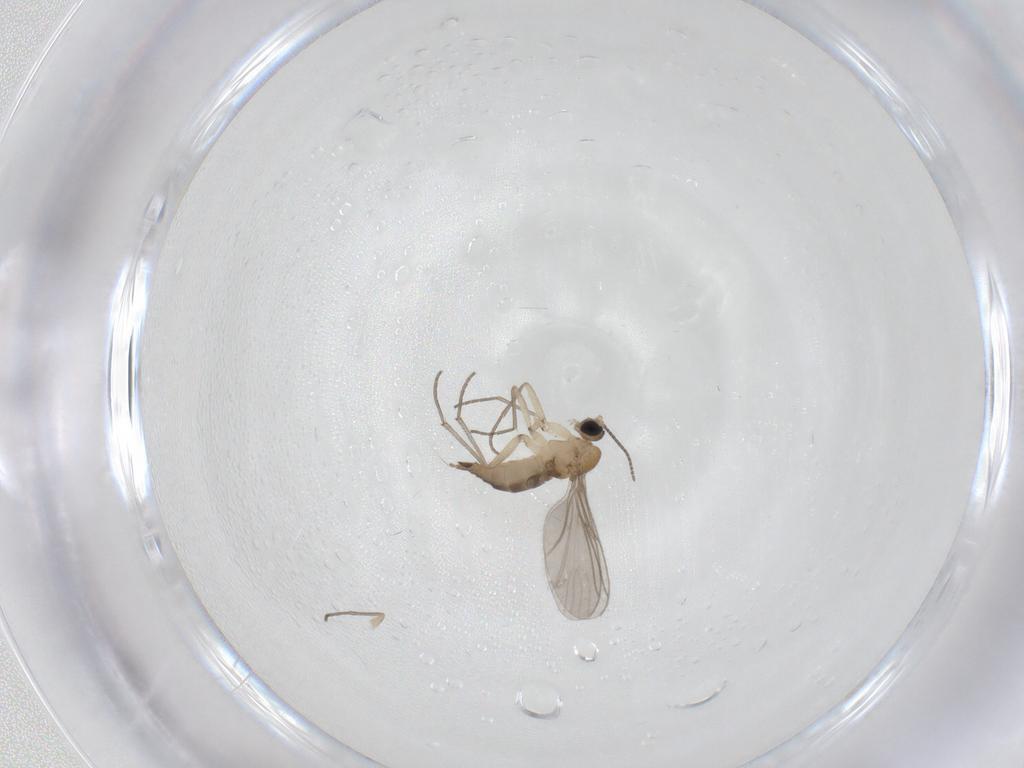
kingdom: Animalia
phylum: Arthropoda
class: Insecta
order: Diptera
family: Sciaridae
